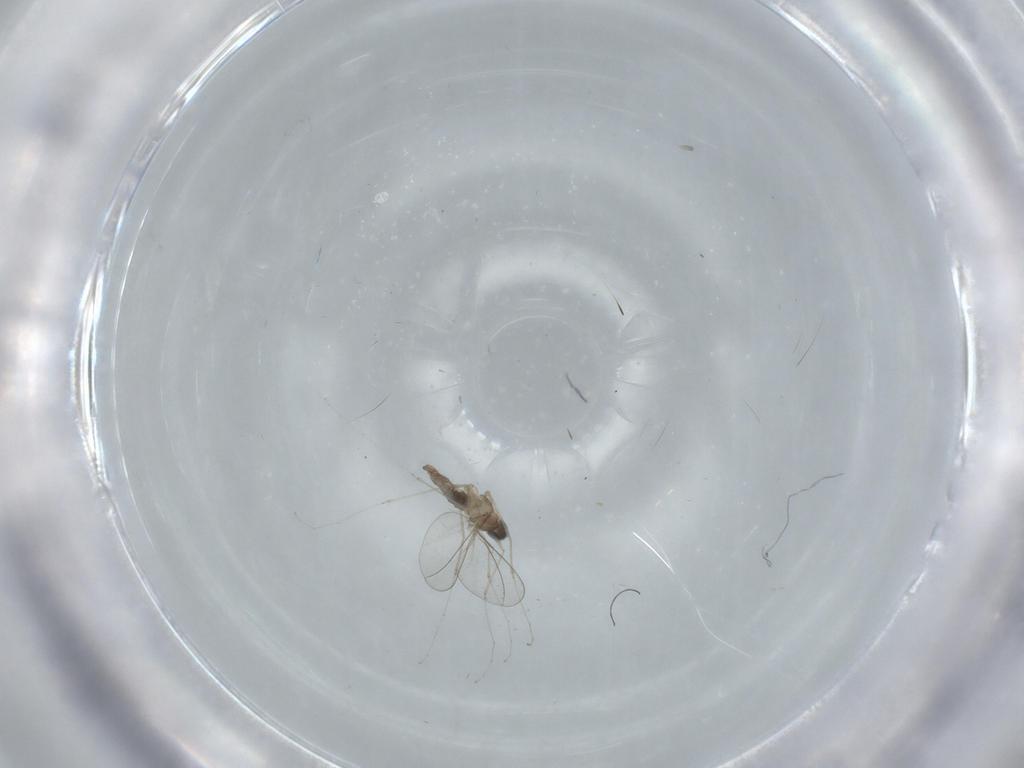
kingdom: Animalia
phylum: Arthropoda
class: Insecta
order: Diptera
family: Cecidomyiidae
